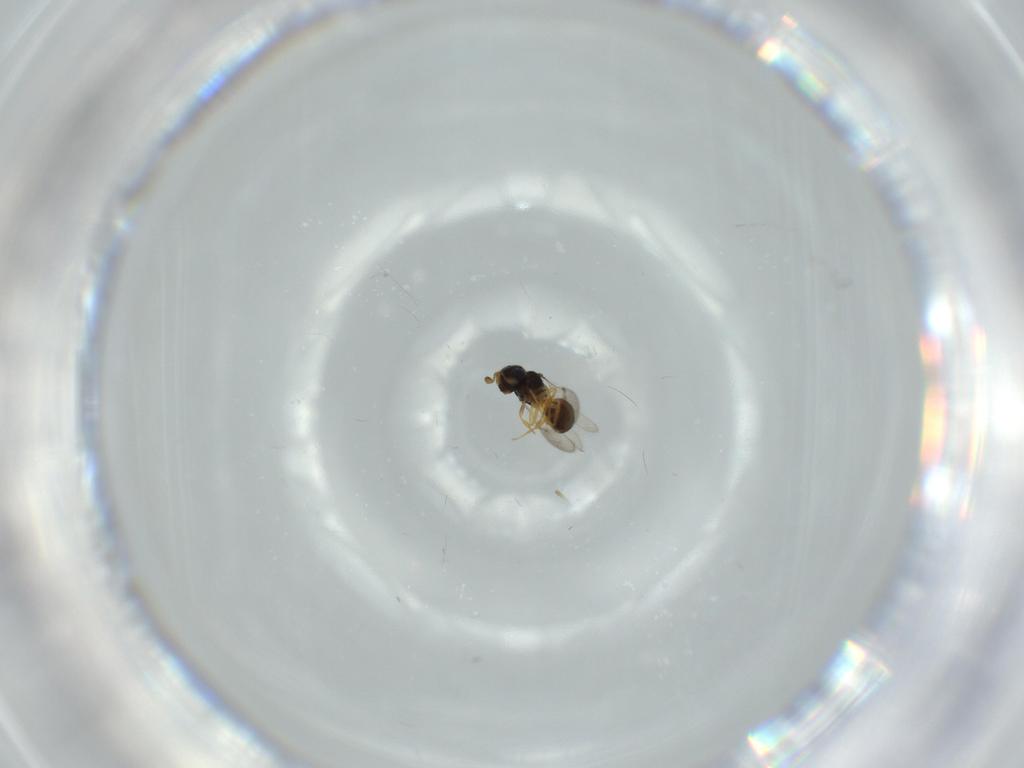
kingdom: Animalia
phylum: Arthropoda
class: Insecta
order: Hymenoptera
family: Scelionidae
